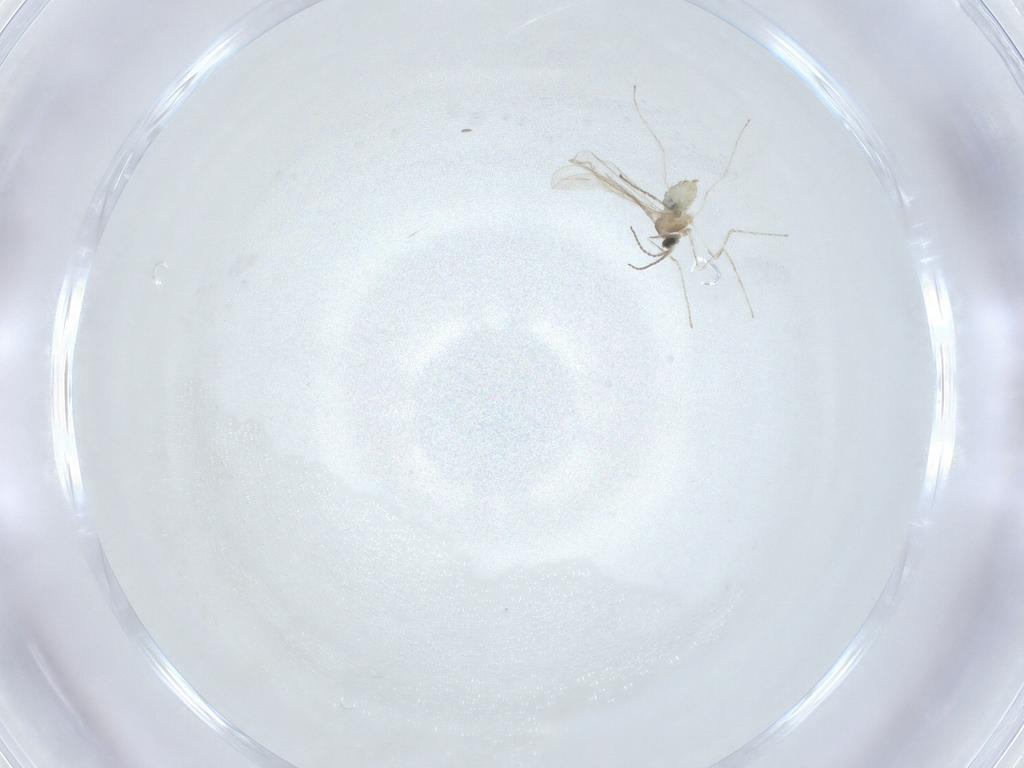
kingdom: Animalia
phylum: Arthropoda
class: Insecta
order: Diptera
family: Cecidomyiidae
